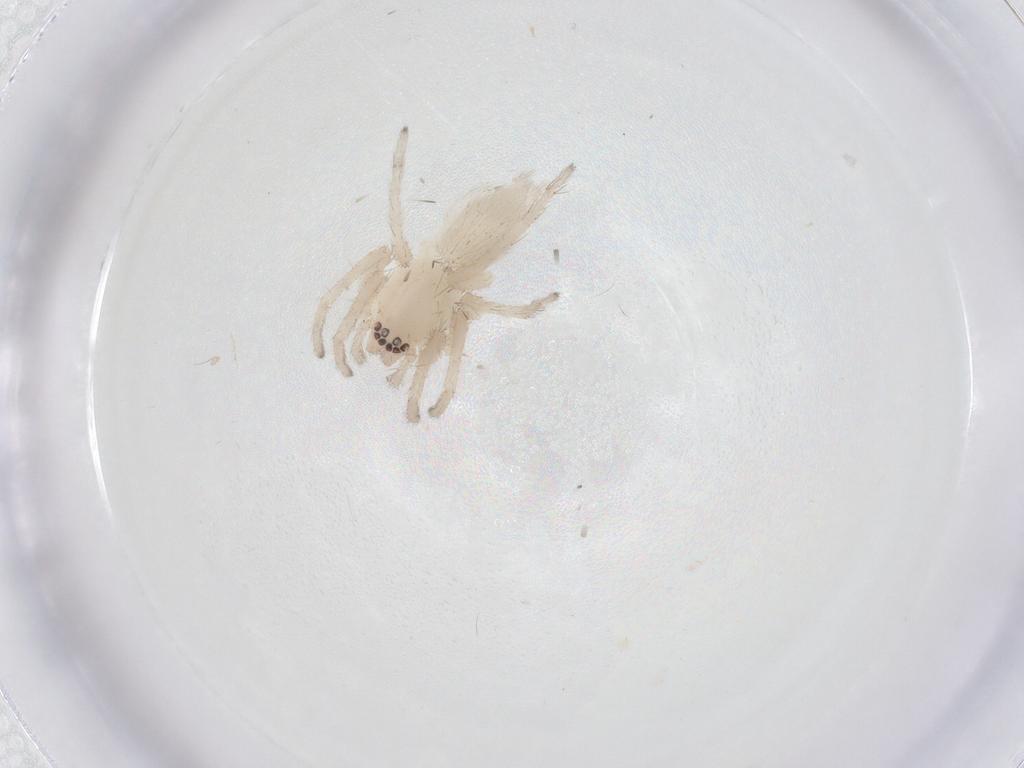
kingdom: Animalia
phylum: Arthropoda
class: Arachnida
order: Araneae
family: Clubionidae
